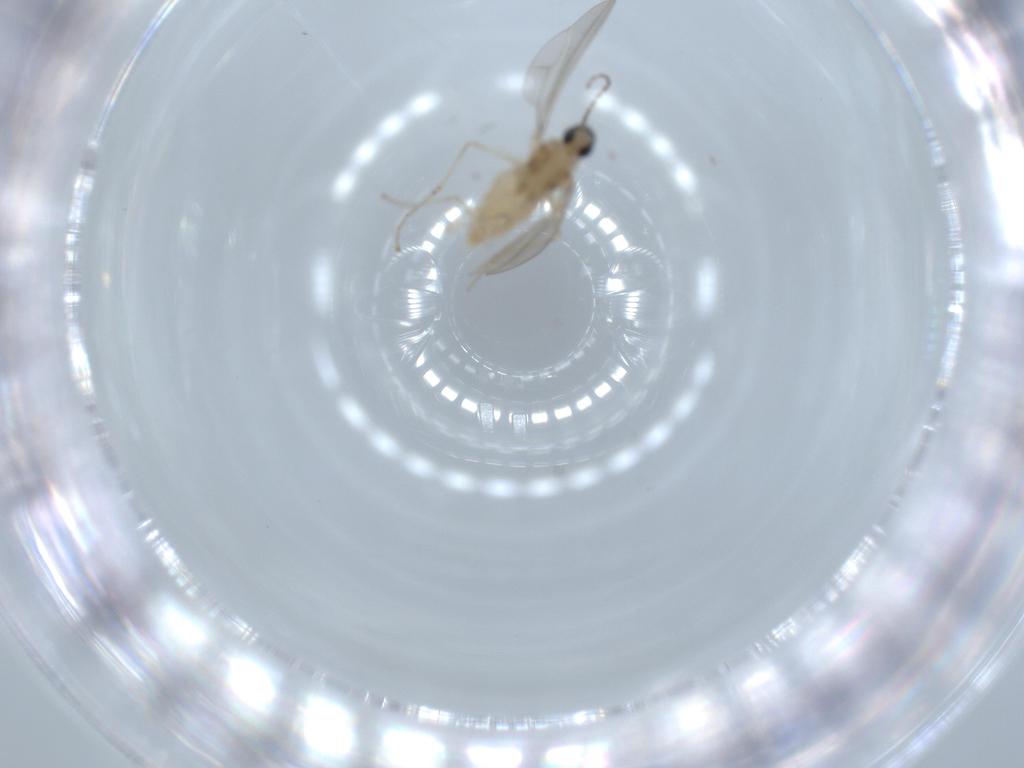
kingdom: Animalia
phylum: Arthropoda
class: Insecta
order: Diptera
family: Cecidomyiidae
